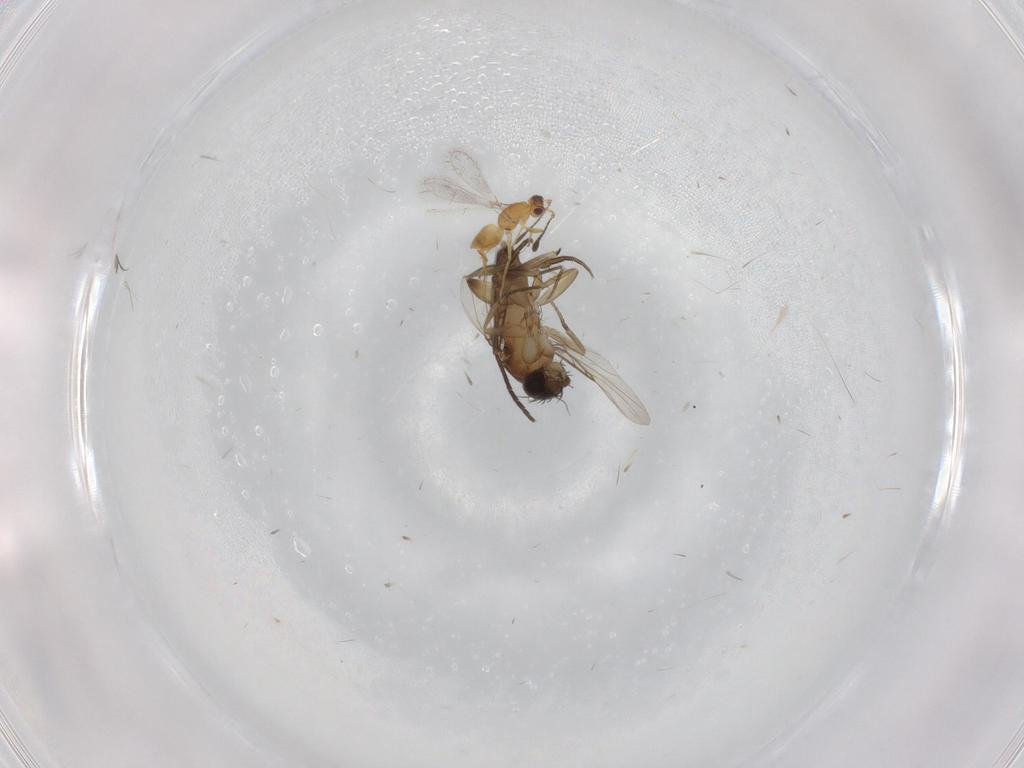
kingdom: Animalia
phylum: Arthropoda
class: Insecta
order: Diptera
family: Phoridae
